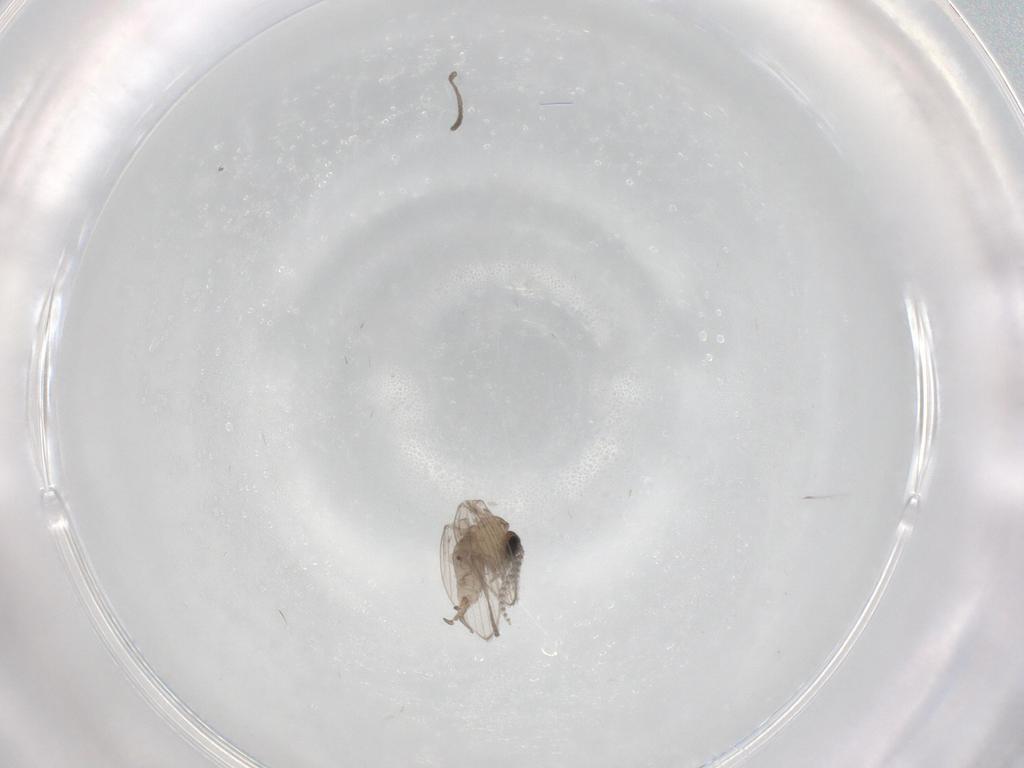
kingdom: Animalia
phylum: Arthropoda
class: Insecta
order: Diptera
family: Psychodidae
